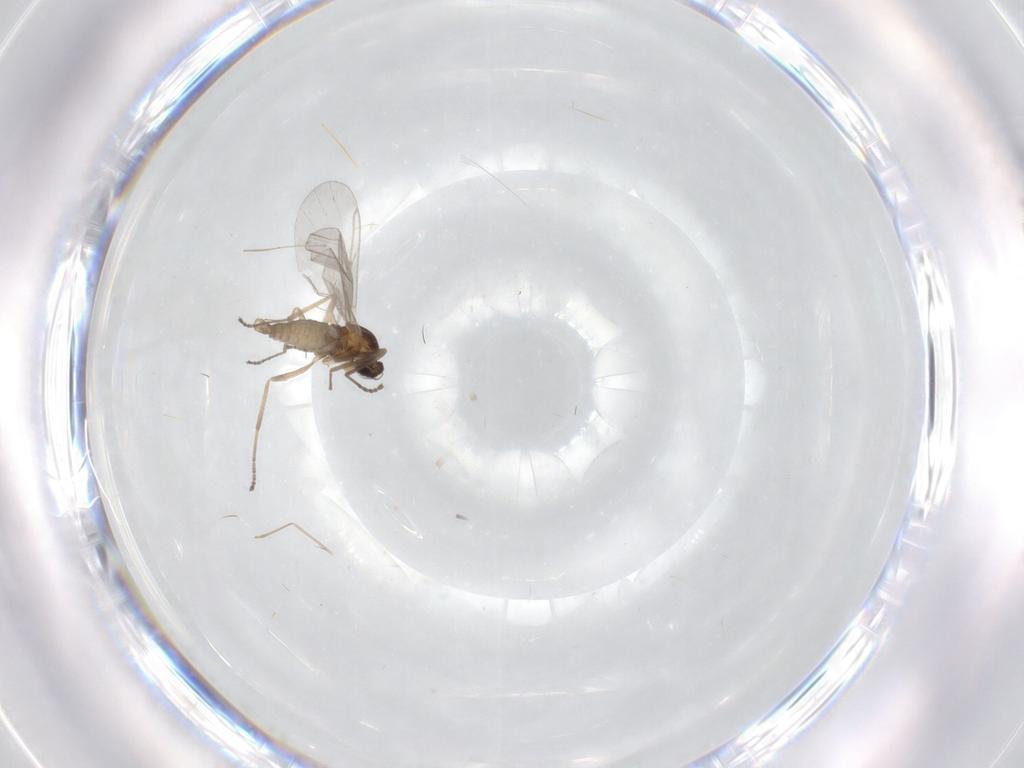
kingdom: Animalia
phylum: Arthropoda
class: Insecta
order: Diptera
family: Cecidomyiidae
